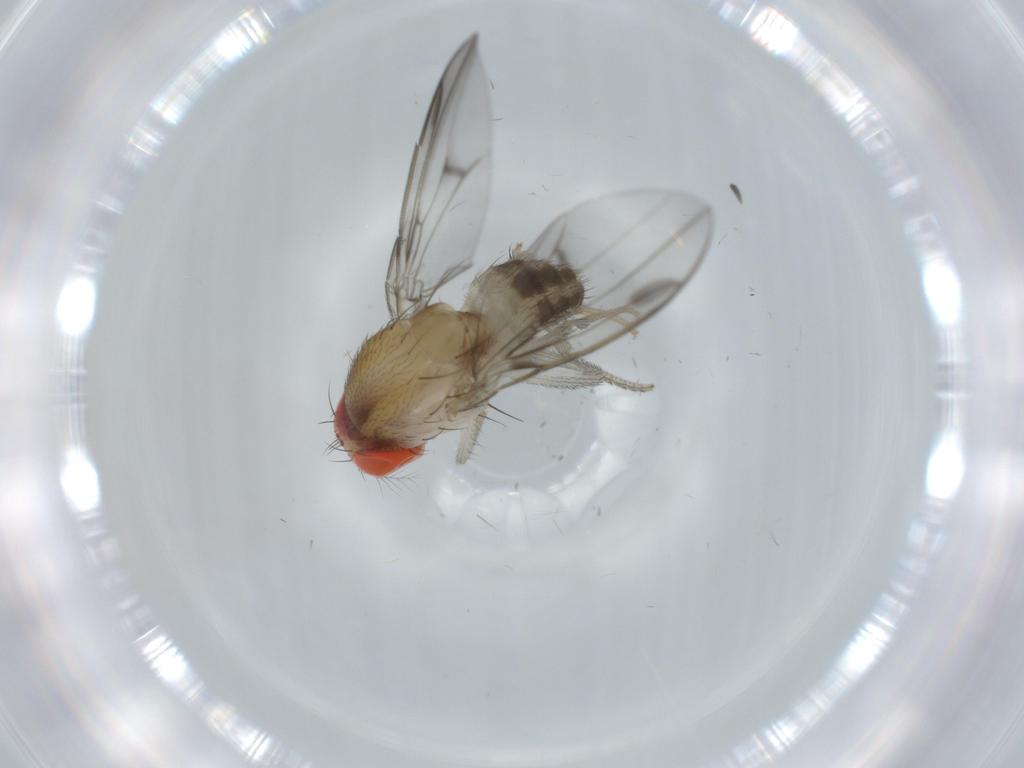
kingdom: Animalia
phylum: Arthropoda
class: Insecta
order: Diptera
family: Drosophilidae
